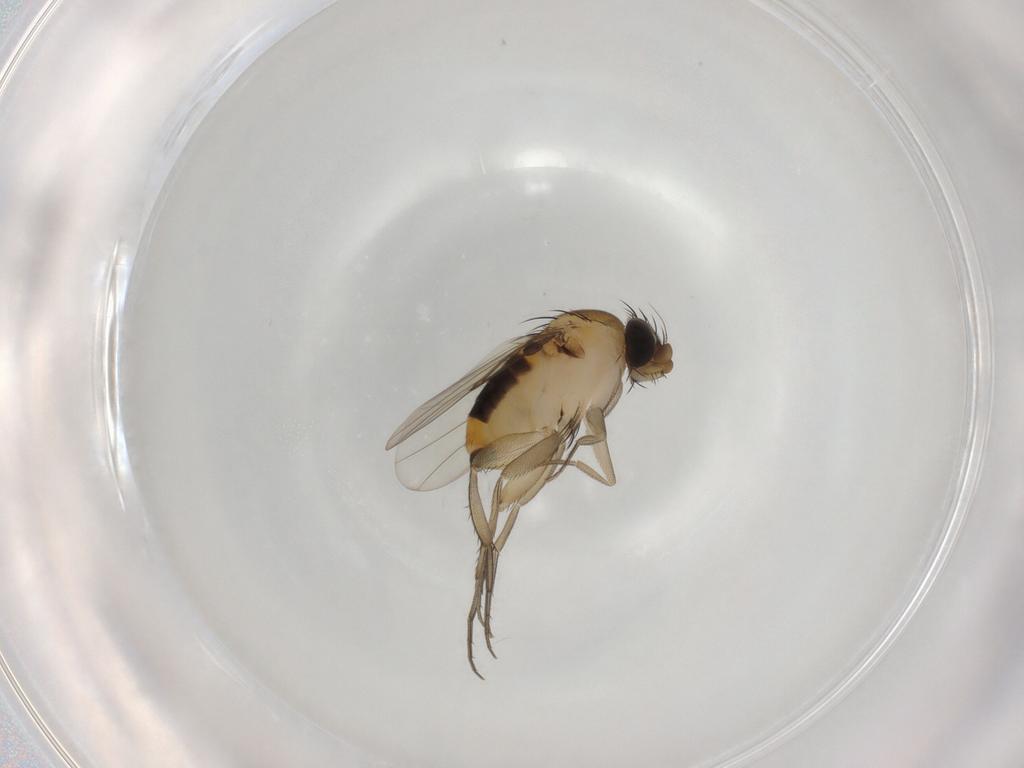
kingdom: Animalia
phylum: Arthropoda
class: Insecta
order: Diptera
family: Phoridae
